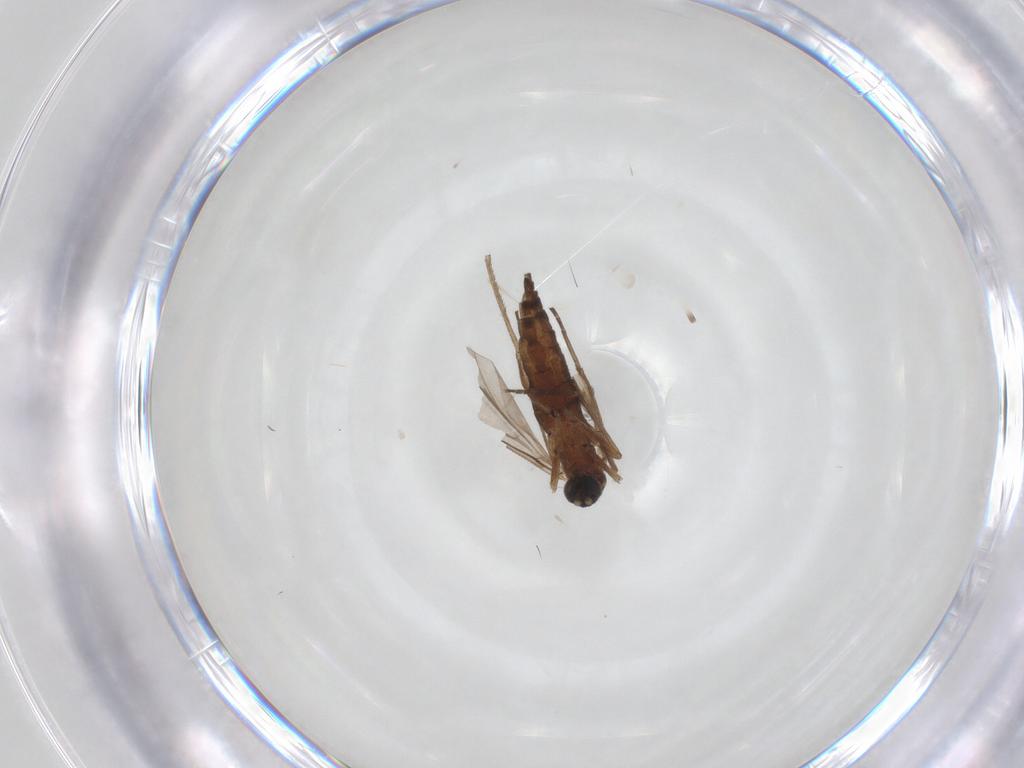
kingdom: Animalia
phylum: Arthropoda
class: Insecta
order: Diptera
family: Sciaridae
